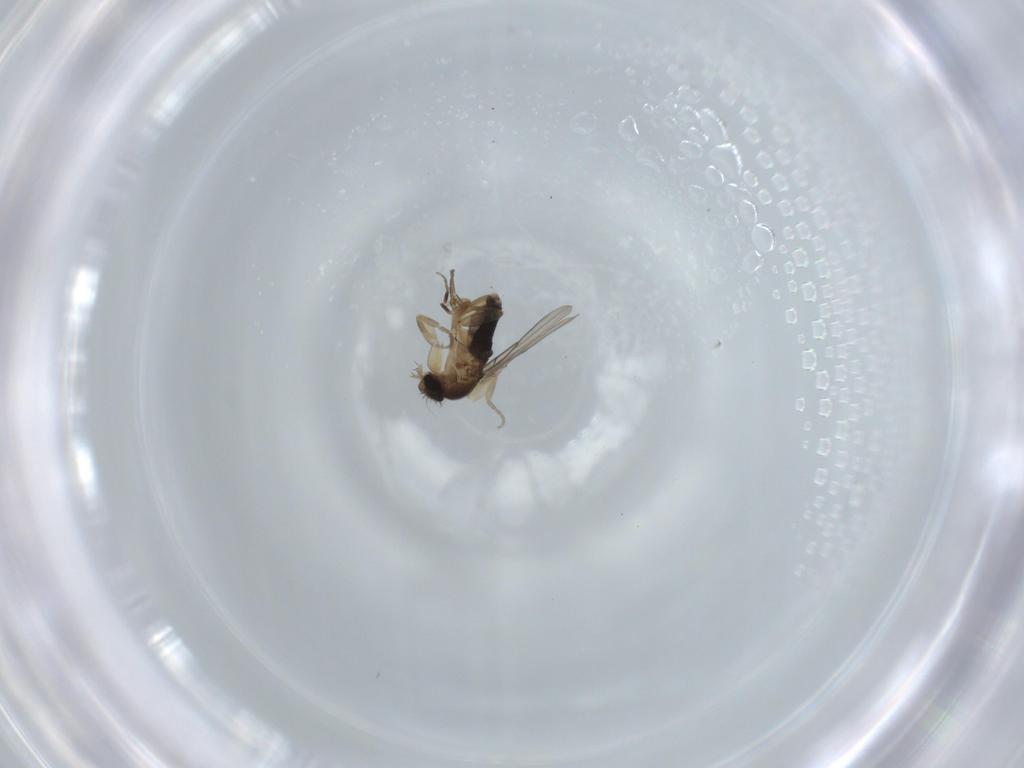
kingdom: Animalia
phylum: Arthropoda
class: Insecta
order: Diptera
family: Phoridae
